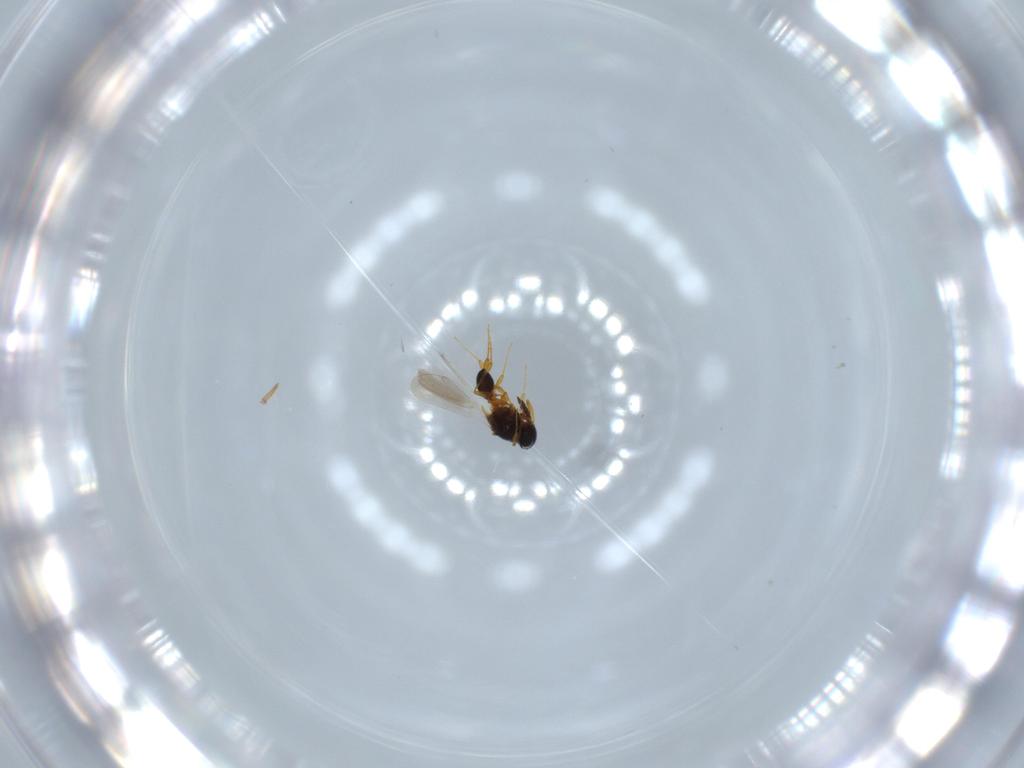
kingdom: Animalia
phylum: Arthropoda
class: Insecta
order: Hymenoptera
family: Platygastridae
